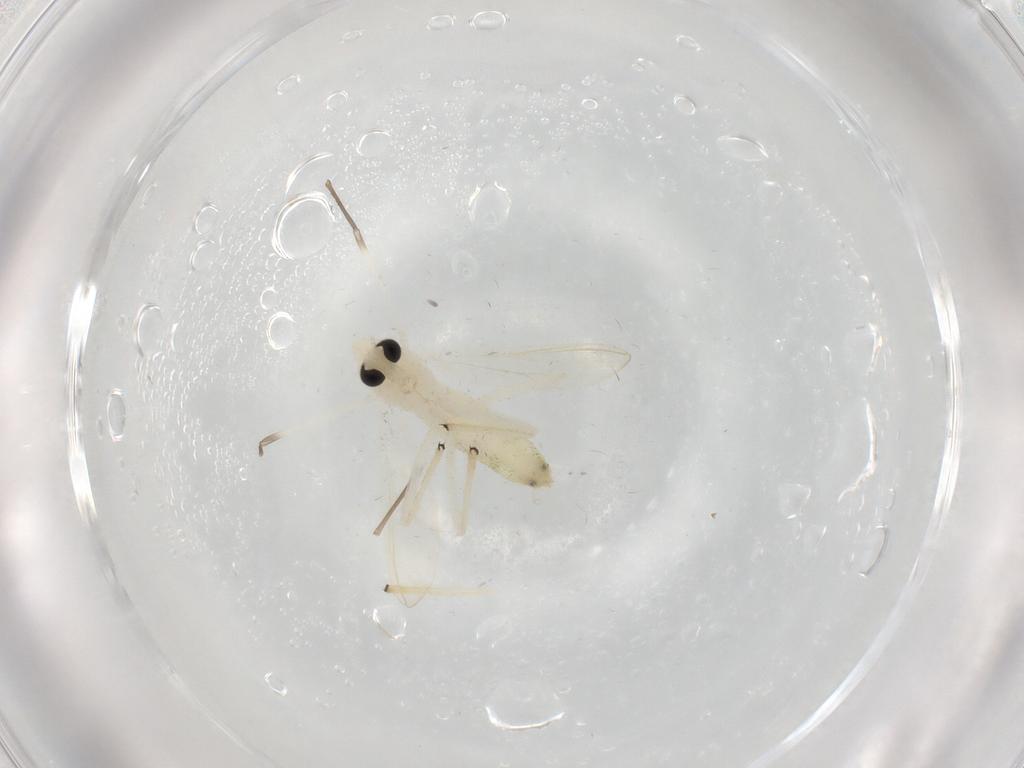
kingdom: Animalia
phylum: Arthropoda
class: Insecta
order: Diptera
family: Chironomidae
